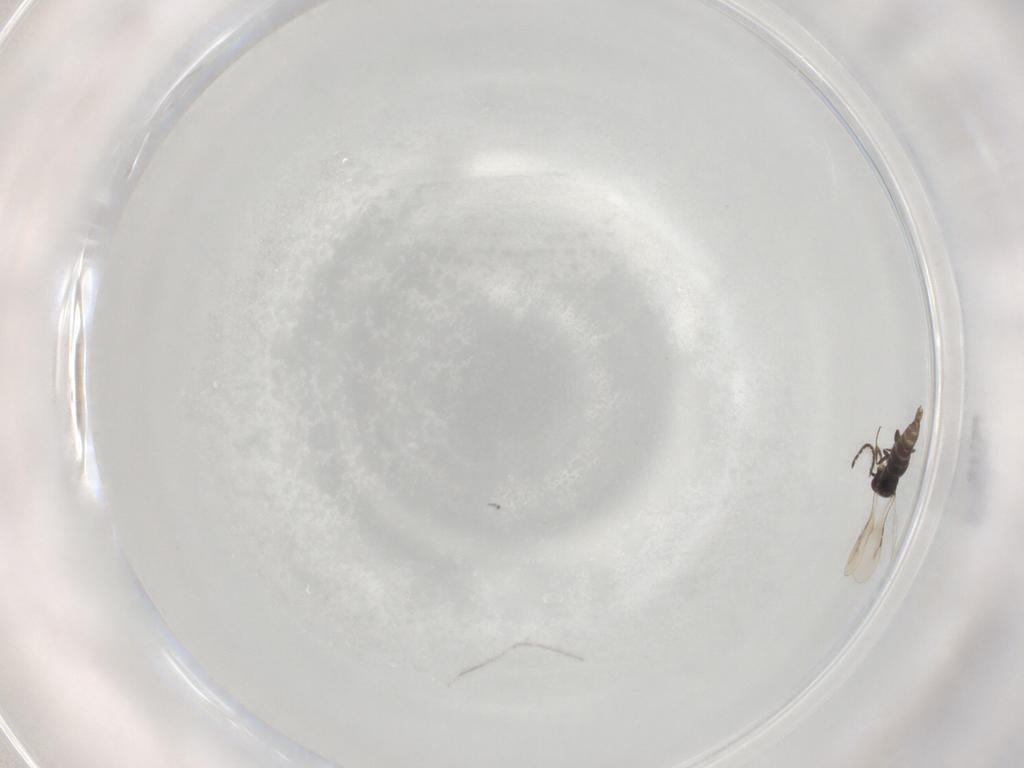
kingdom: Animalia
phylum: Arthropoda
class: Insecta
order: Hymenoptera
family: Ceraphronidae
